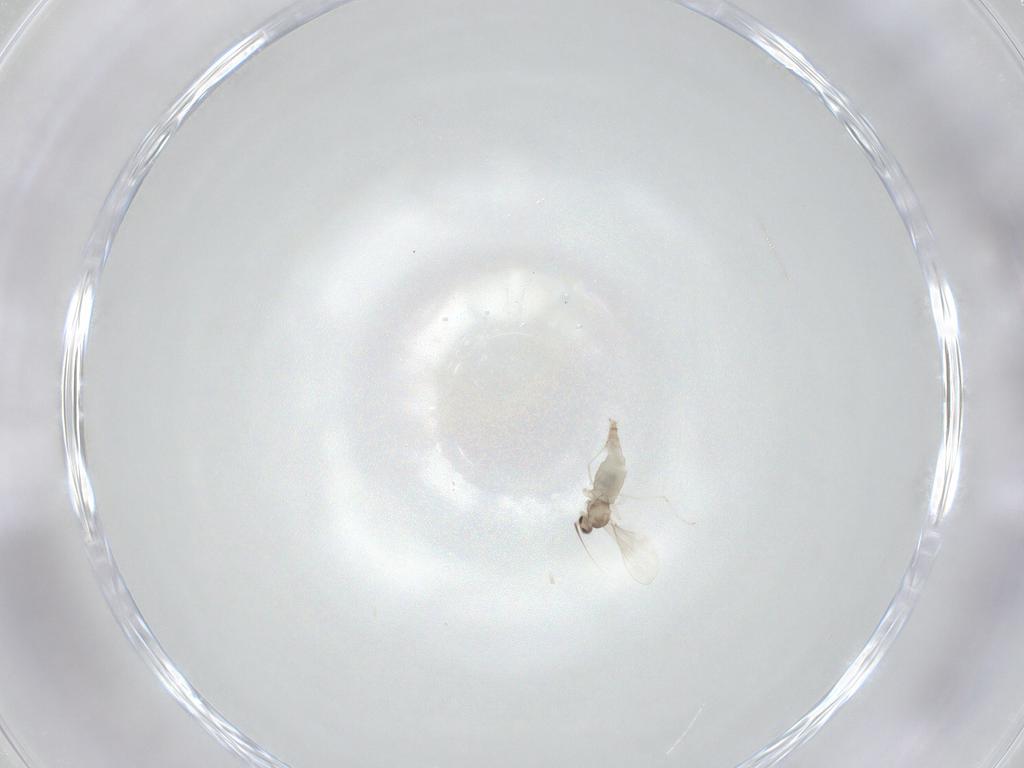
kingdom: Animalia
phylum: Arthropoda
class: Insecta
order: Diptera
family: Cecidomyiidae
